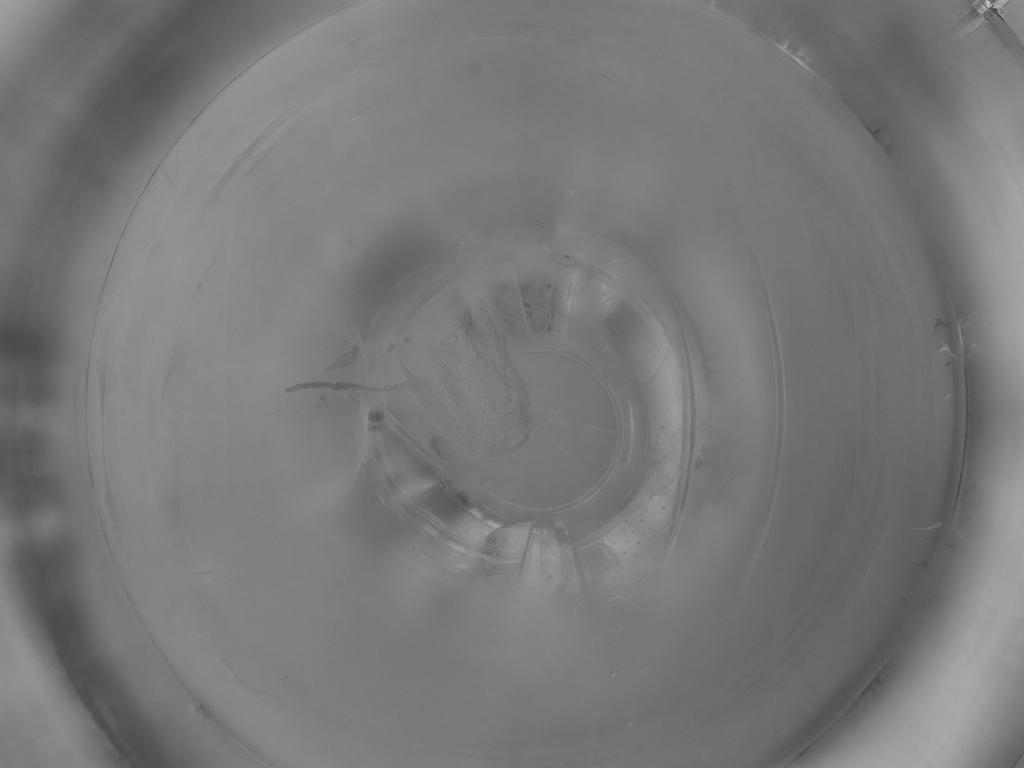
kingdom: Animalia
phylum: Arthropoda
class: Insecta
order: Diptera
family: Psychodidae
